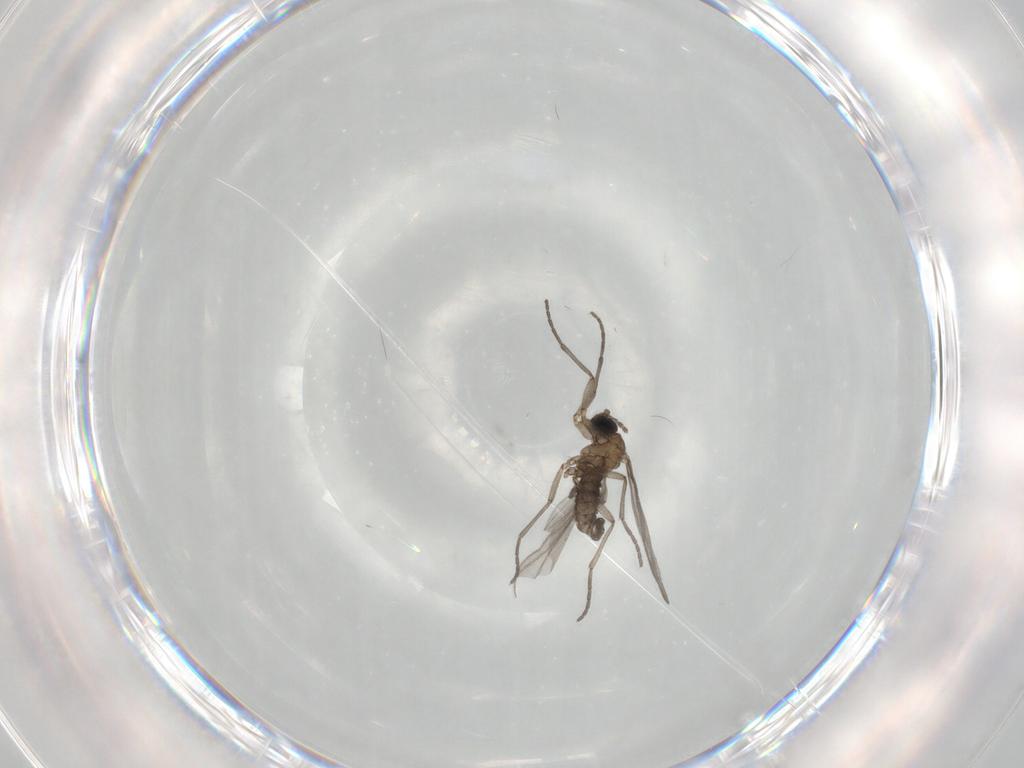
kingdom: Animalia
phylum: Arthropoda
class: Insecta
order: Diptera
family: Sciaridae
